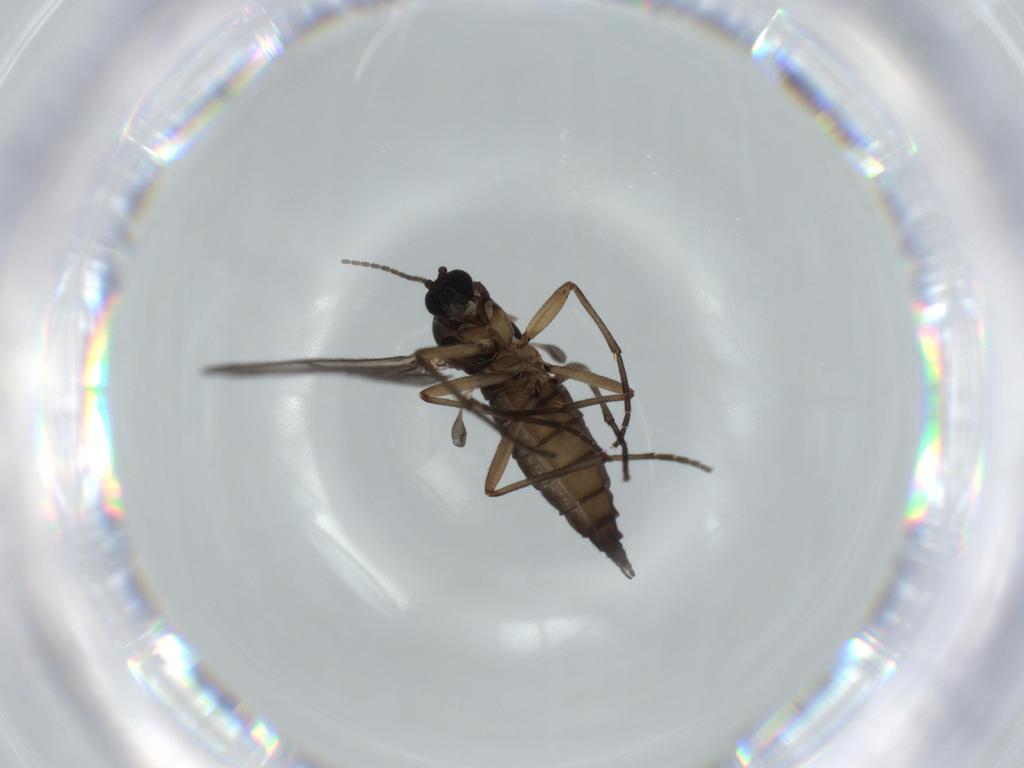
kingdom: Animalia
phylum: Arthropoda
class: Insecta
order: Diptera
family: Sciaridae
